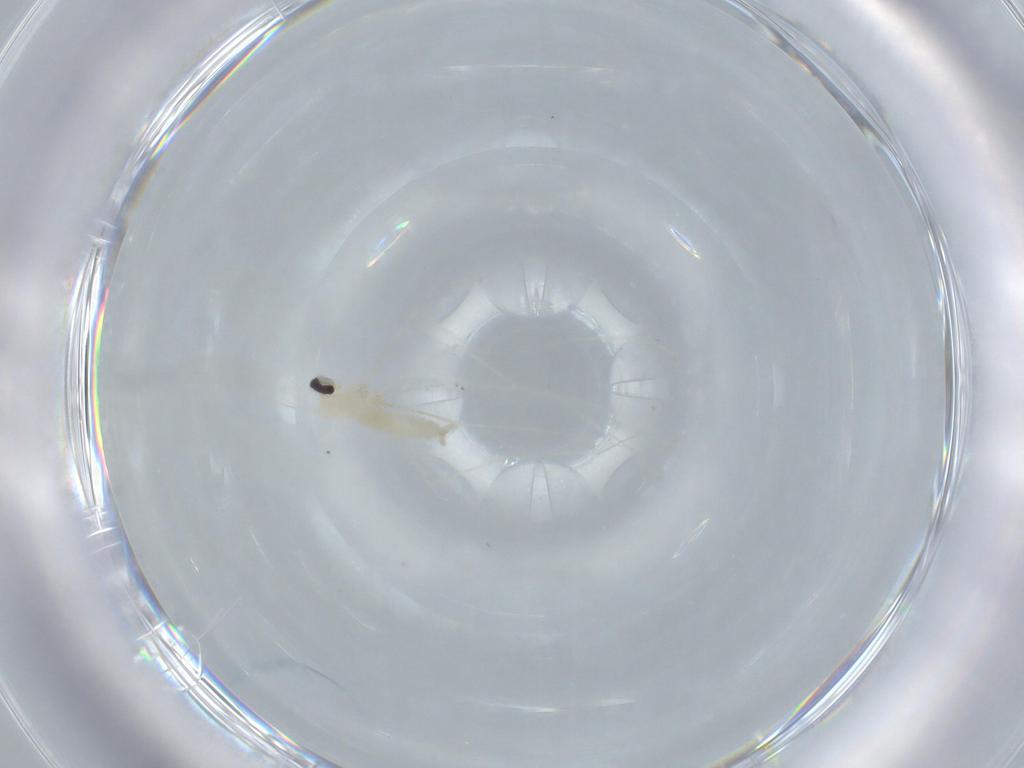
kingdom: Animalia
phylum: Arthropoda
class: Insecta
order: Diptera
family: Cecidomyiidae
